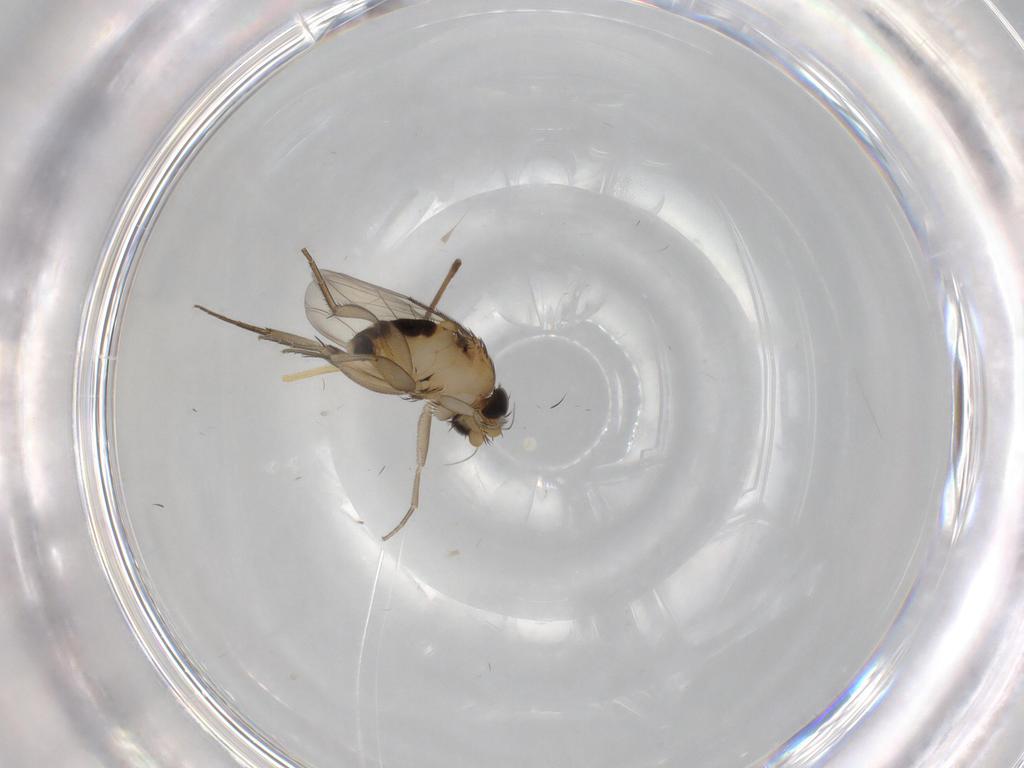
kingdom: Animalia
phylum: Arthropoda
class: Insecta
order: Diptera
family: Phoridae
